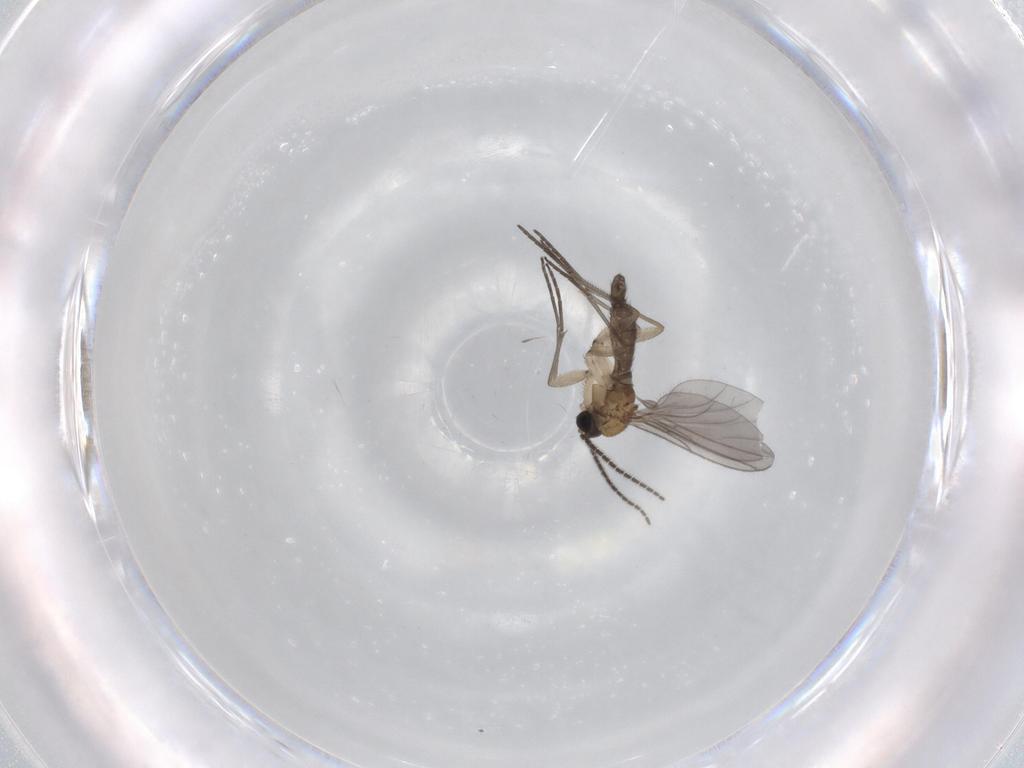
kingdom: Animalia
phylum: Arthropoda
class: Insecta
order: Diptera
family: Sciaridae
